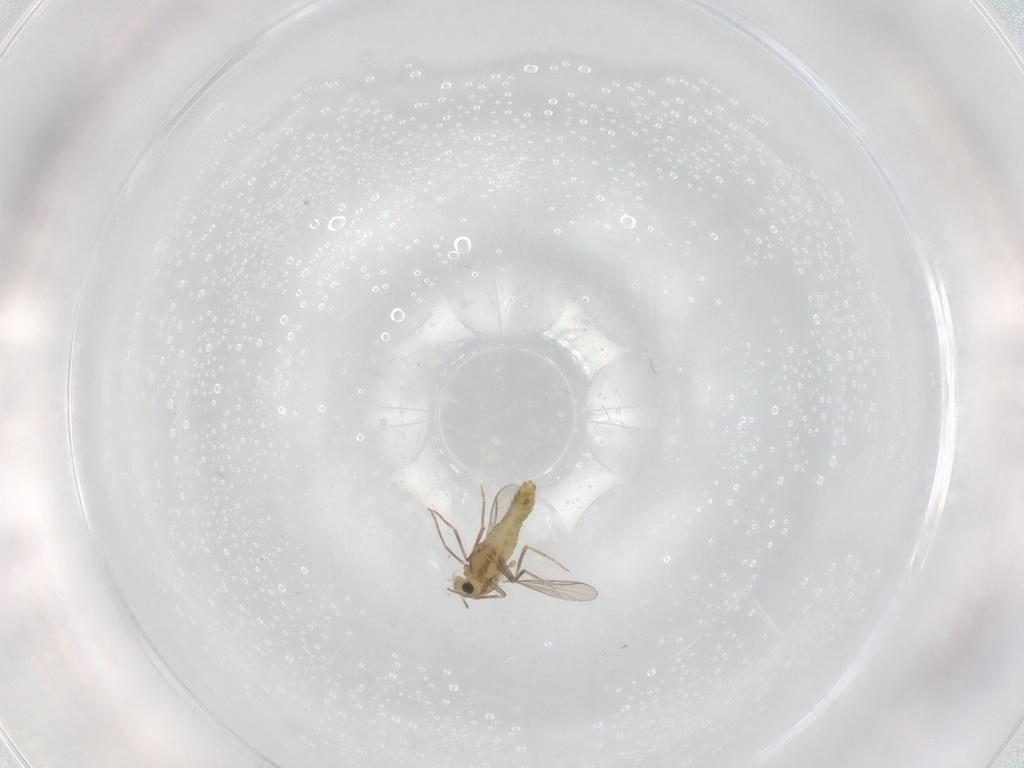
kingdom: Animalia
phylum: Arthropoda
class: Insecta
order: Diptera
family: Chironomidae
